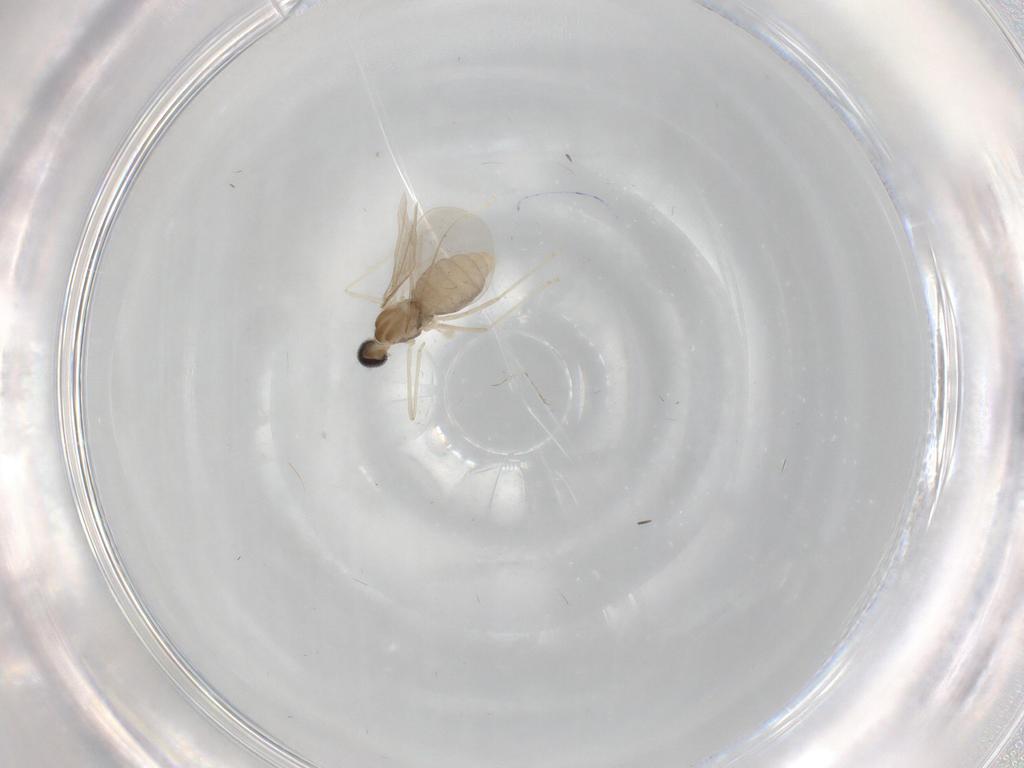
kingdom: Animalia
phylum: Arthropoda
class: Insecta
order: Diptera
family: Cecidomyiidae
